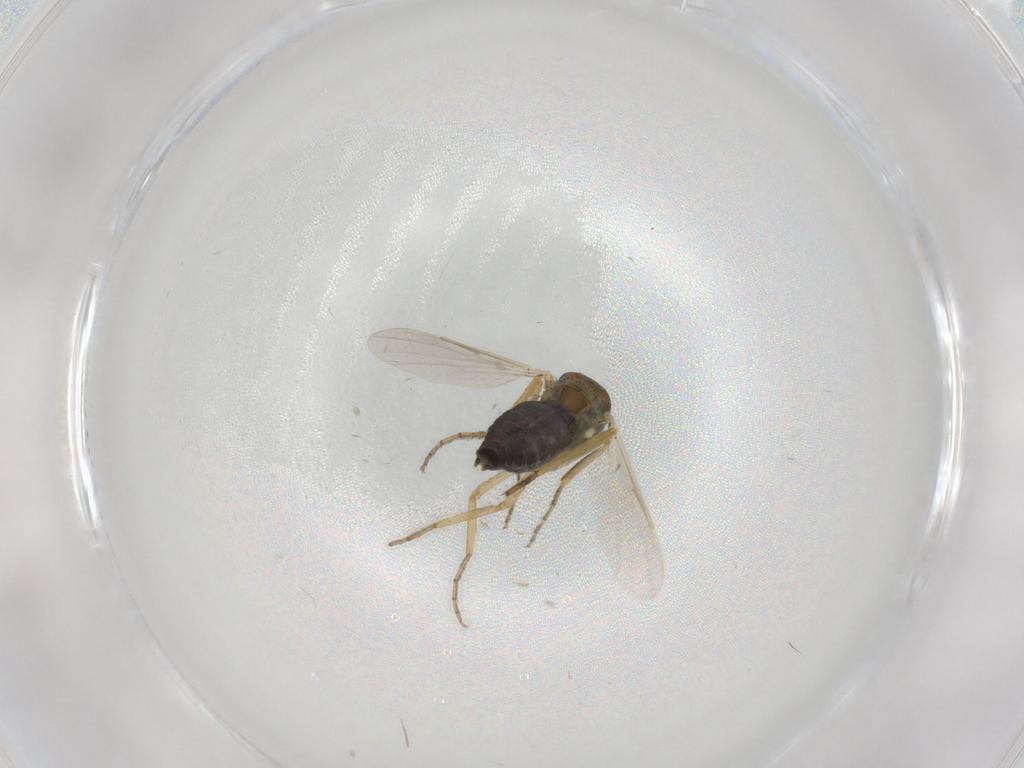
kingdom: Animalia
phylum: Arthropoda
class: Insecta
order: Diptera
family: Ceratopogonidae
